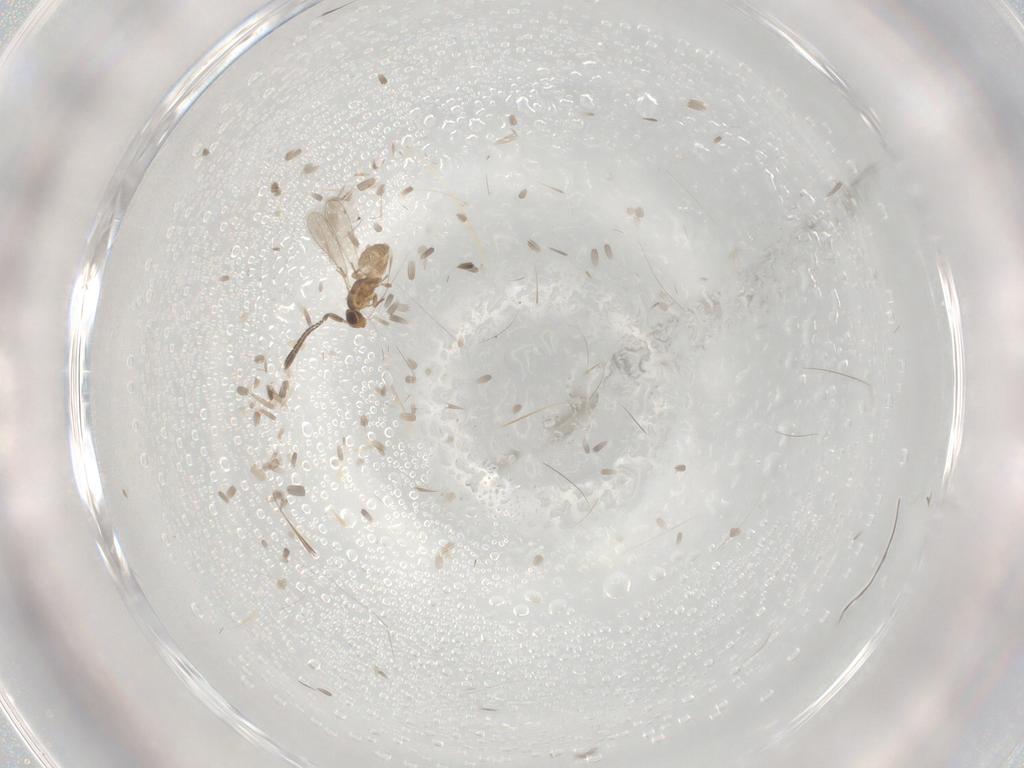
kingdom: Animalia
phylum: Arthropoda
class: Insecta
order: Hymenoptera
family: Mymaridae
